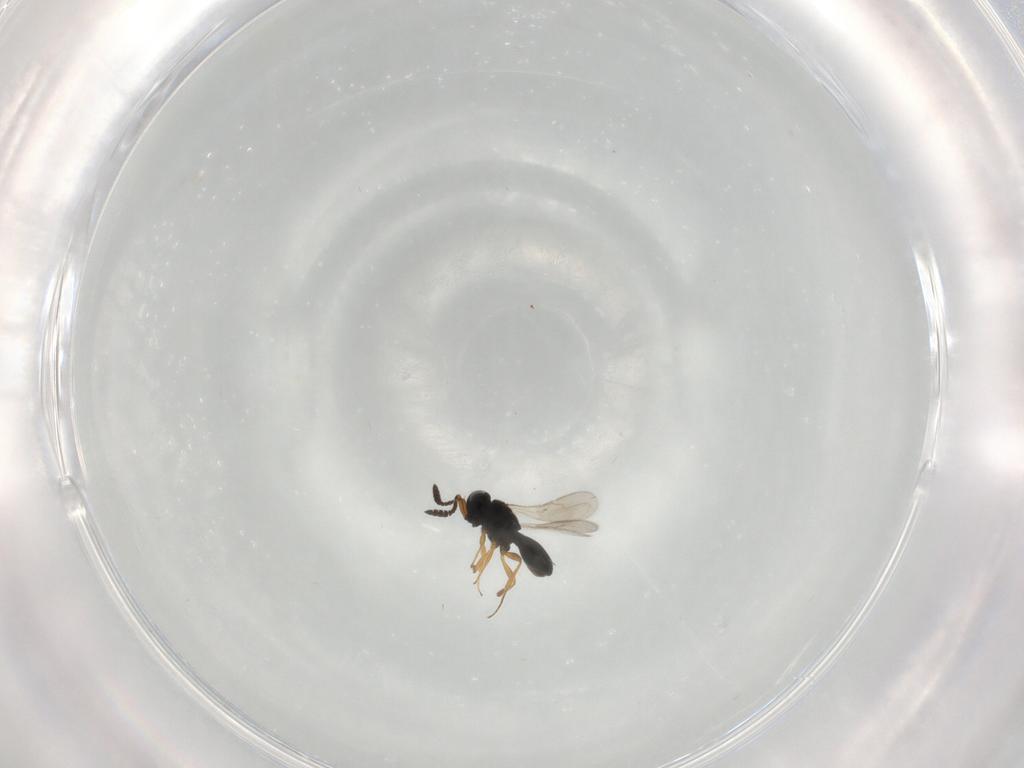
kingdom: Animalia
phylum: Arthropoda
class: Insecta
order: Hymenoptera
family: Scelionidae
